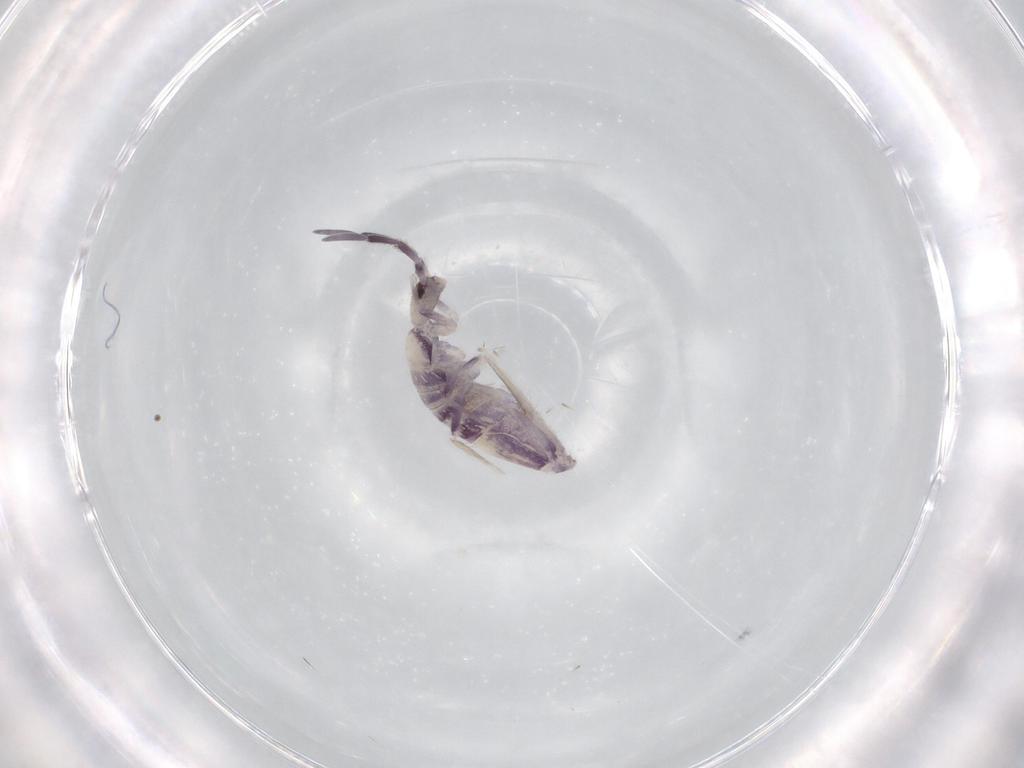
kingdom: Animalia
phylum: Arthropoda
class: Collembola
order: Poduromorpha
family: Hypogastruridae
